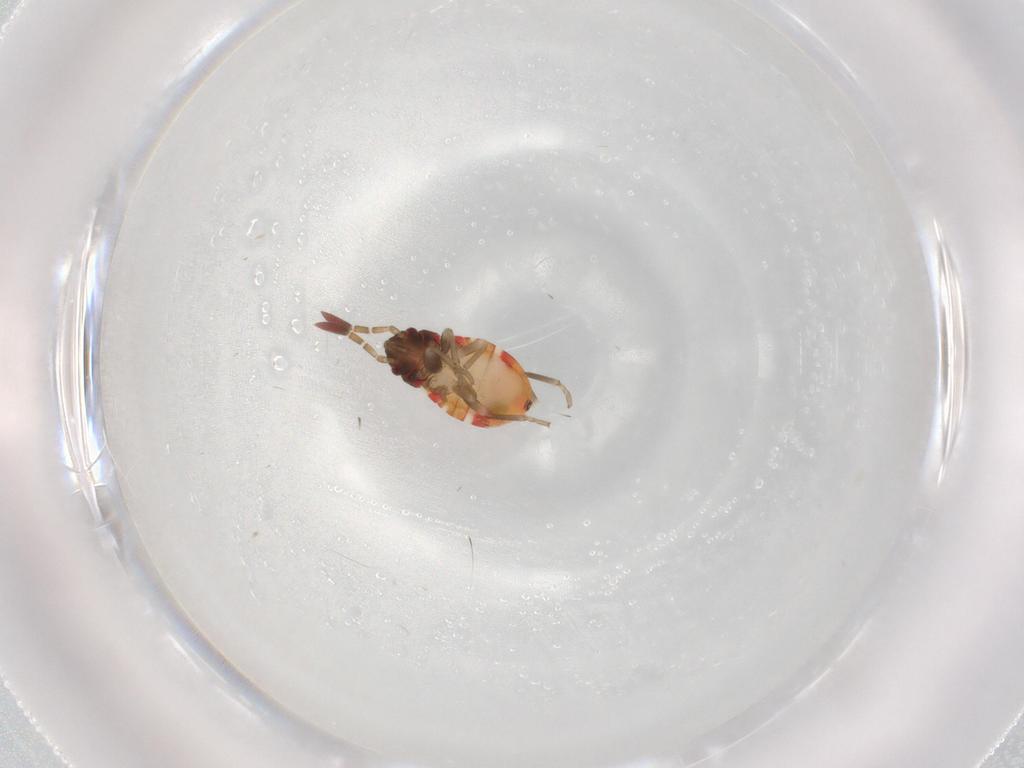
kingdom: Animalia
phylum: Arthropoda
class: Insecta
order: Hemiptera
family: Rhyparochromidae
